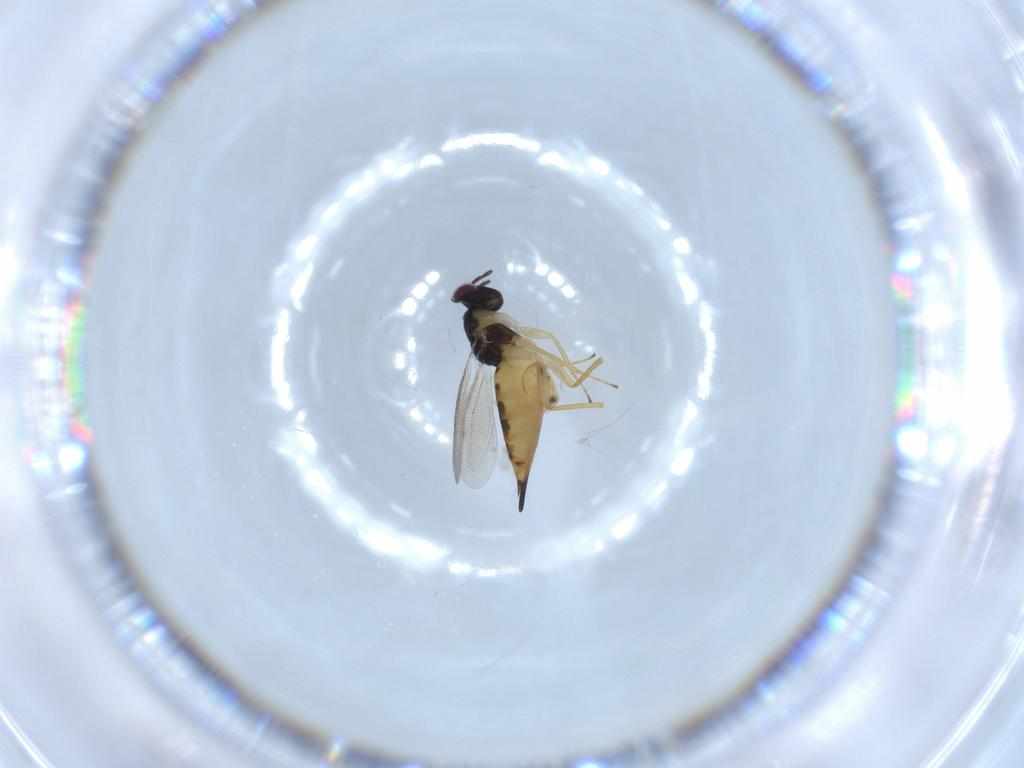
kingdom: Animalia
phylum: Arthropoda
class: Insecta
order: Hymenoptera
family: Eulophidae
